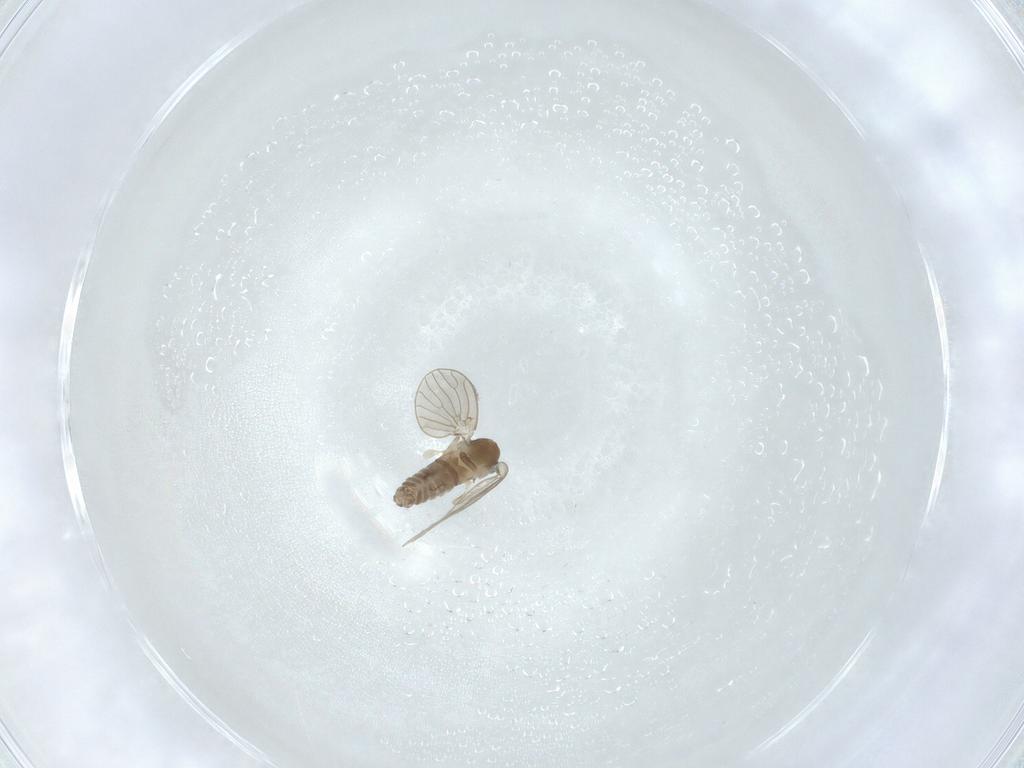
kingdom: Animalia
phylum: Arthropoda
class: Insecta
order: Diptera
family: Psychodidae
